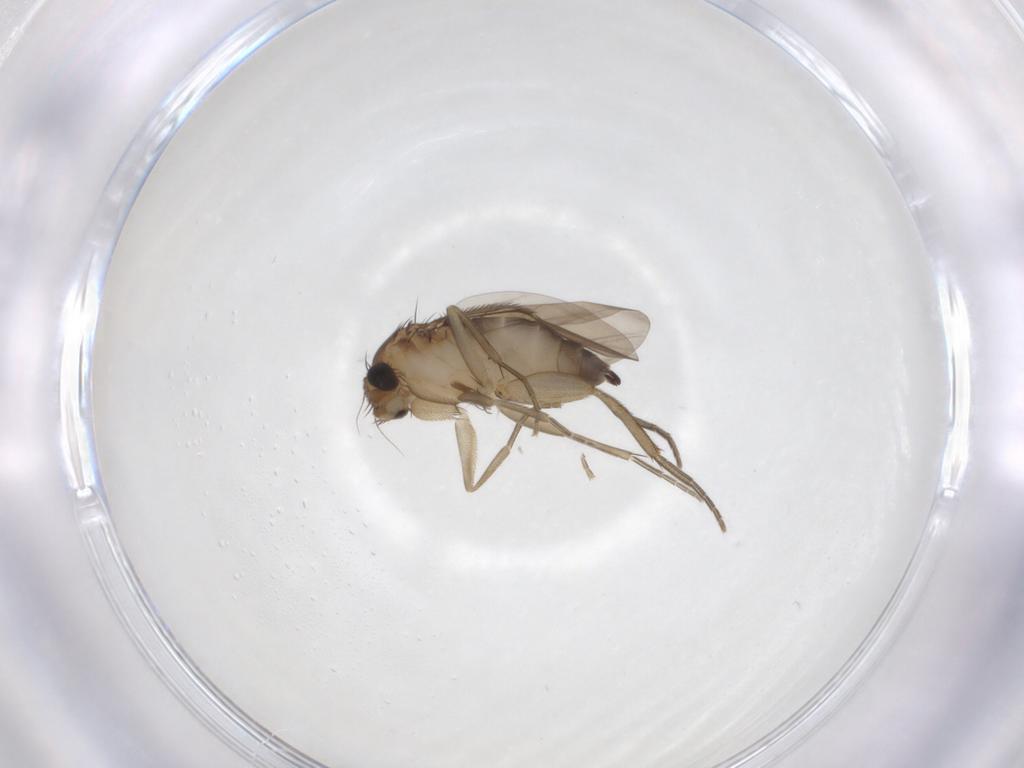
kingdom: Animalia
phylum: Arthropoda
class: Insecta
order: Diptera
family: Phoridae
